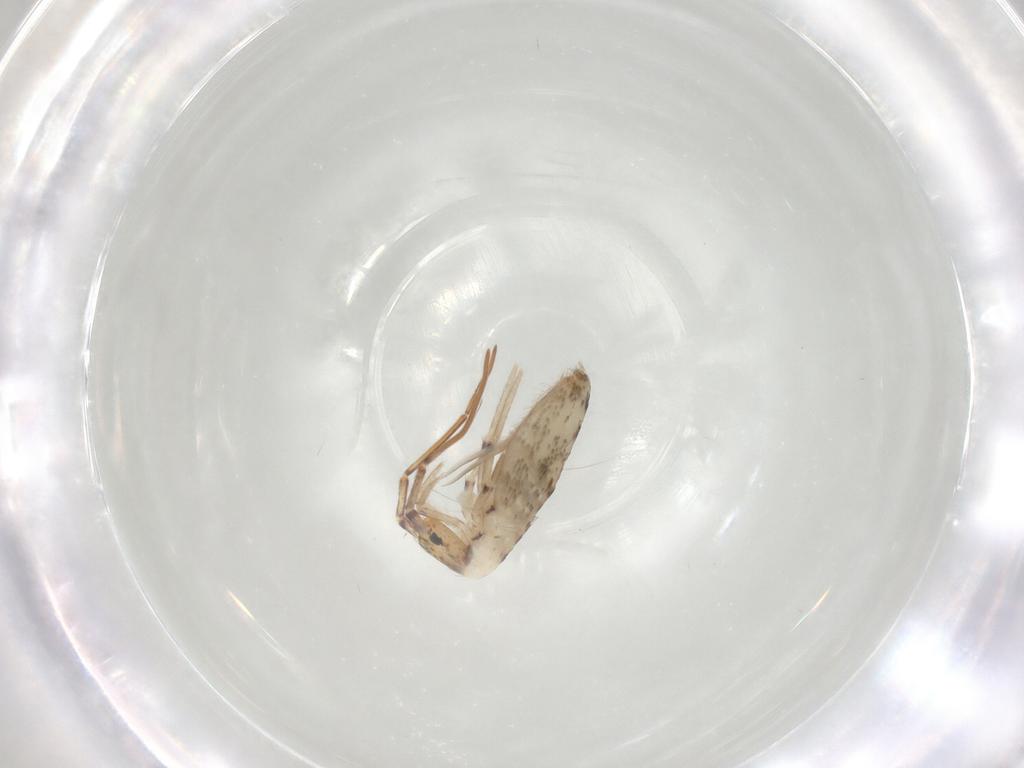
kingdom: Animalia
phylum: Arthropoda
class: Collembola
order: Entomobryomorpha
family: Entomobryidae
